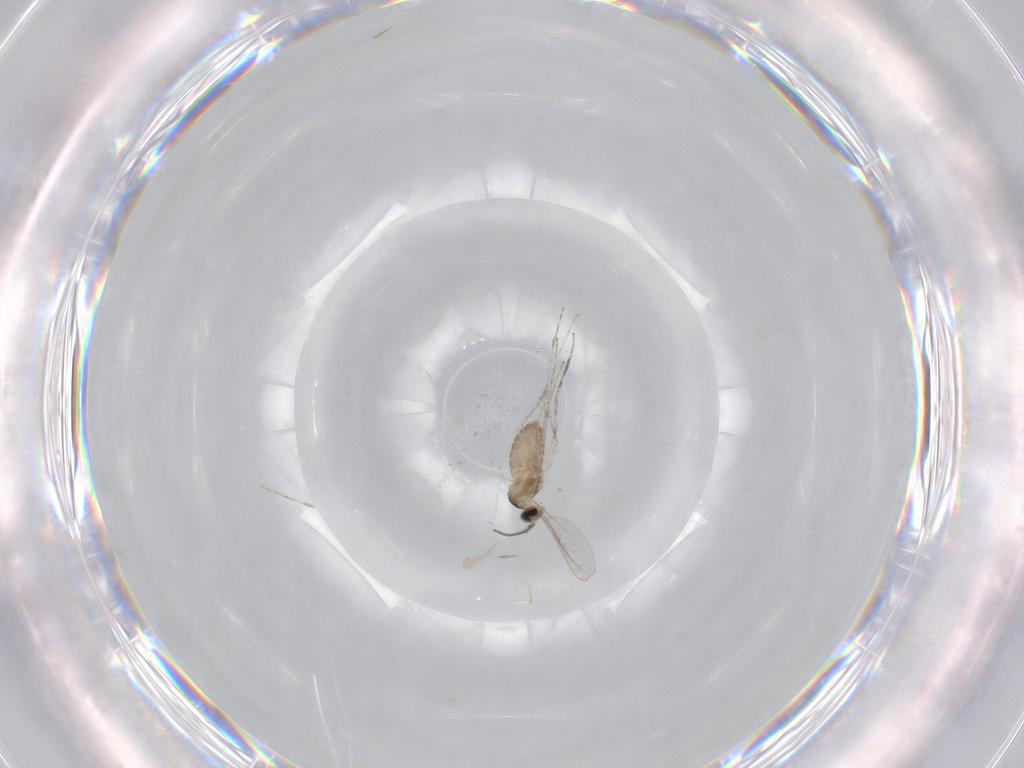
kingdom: Animalia
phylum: Arthropoda
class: Insecta
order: Diptera
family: Cecidomyiidae
